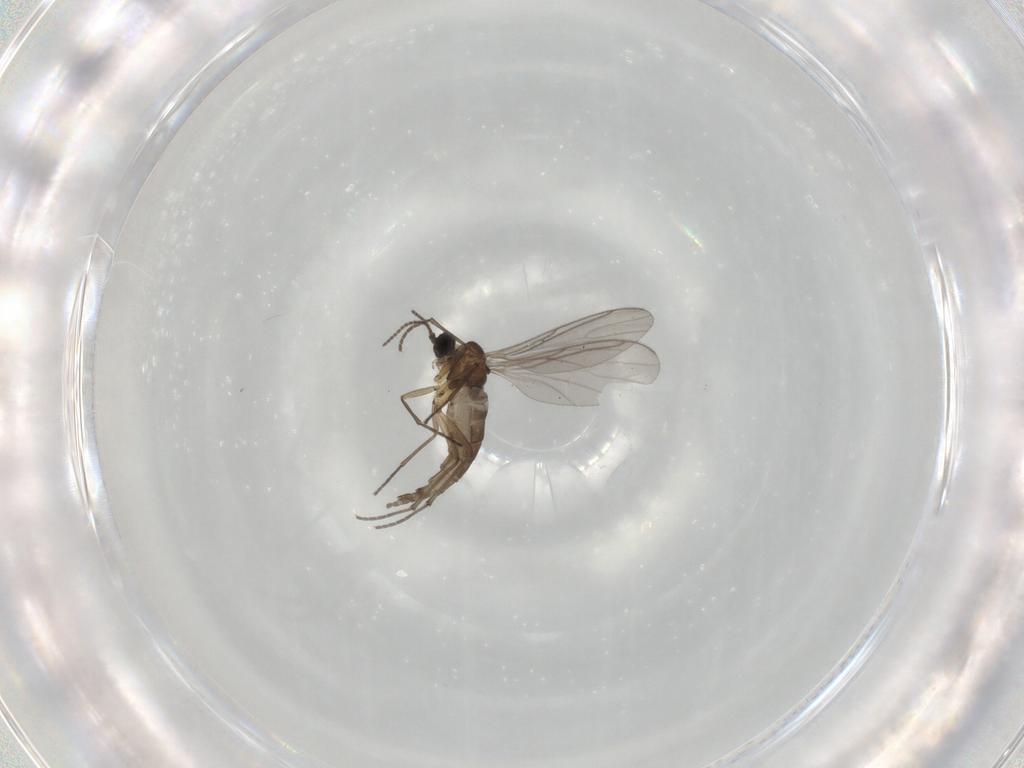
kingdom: Animalia
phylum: Arthropoda
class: Insecta
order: Diptera
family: Sciaridae
